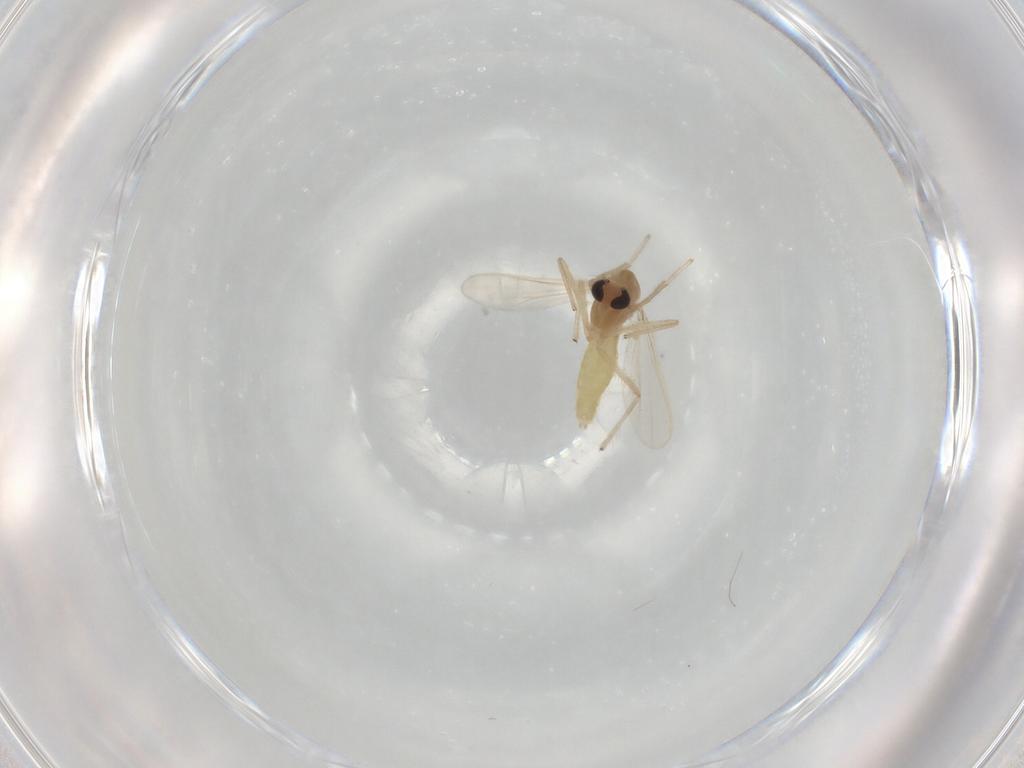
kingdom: Animalia
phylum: Arthropoda
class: Insecta
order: Diptera
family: Chironomidae
